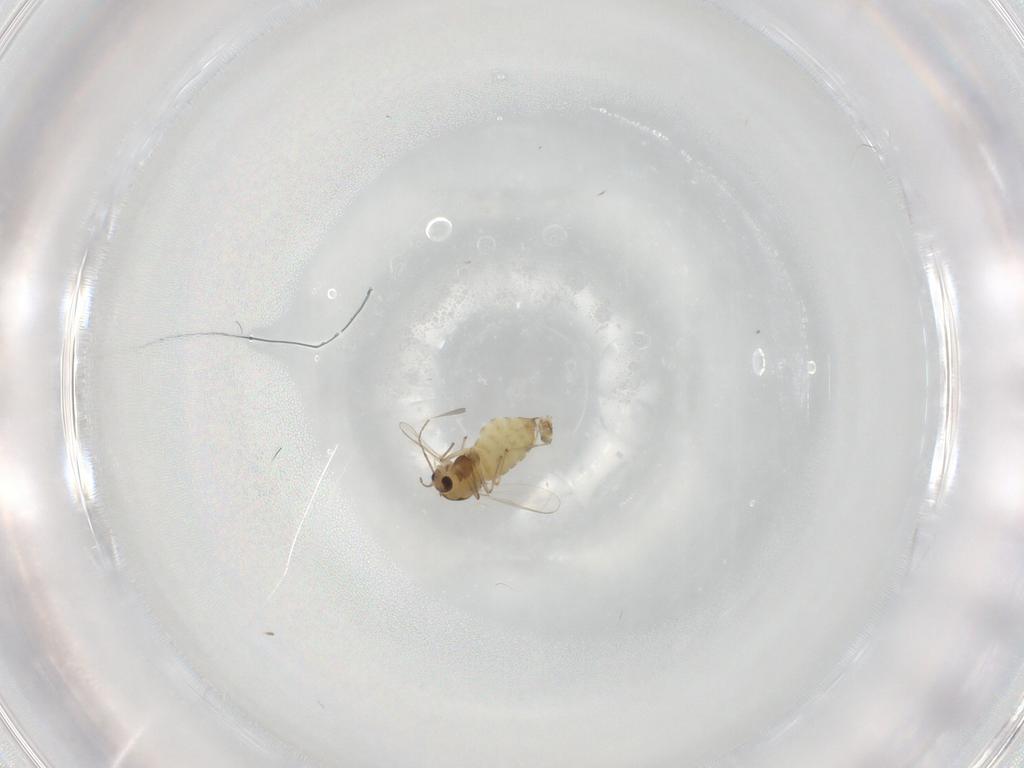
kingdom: Animalia
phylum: Arthropoda
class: Insecta
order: Diptera
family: Chironomidae
